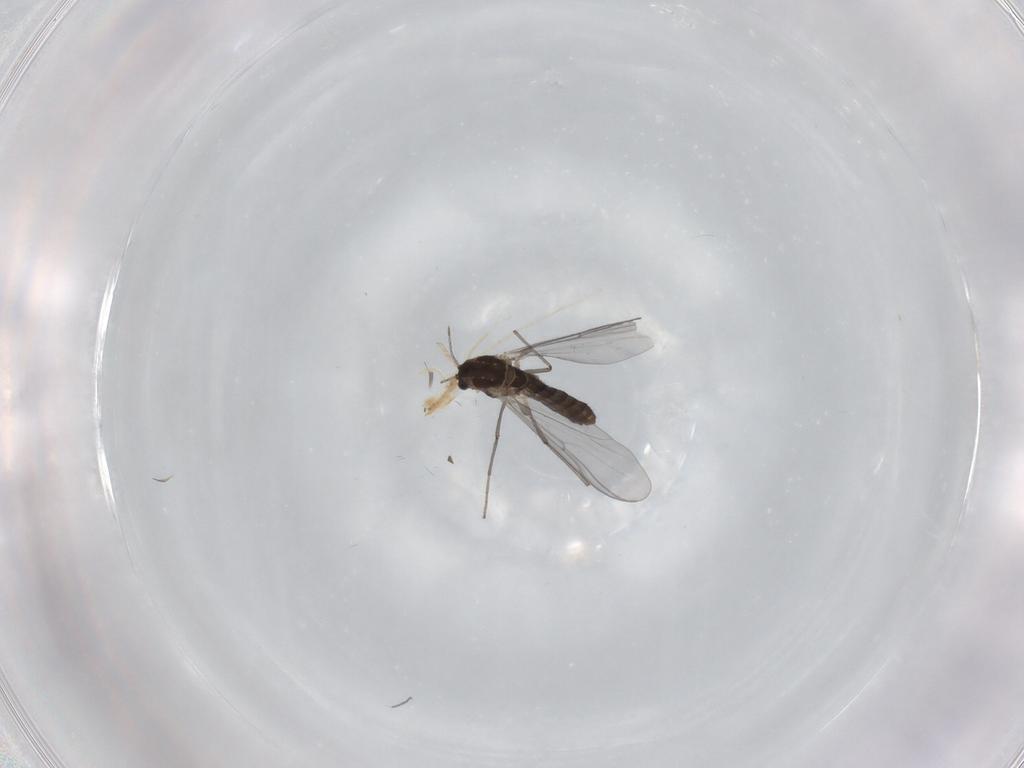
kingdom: Animalia
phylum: Arthropoda
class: Insecta
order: Diptera
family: Chironomidae
